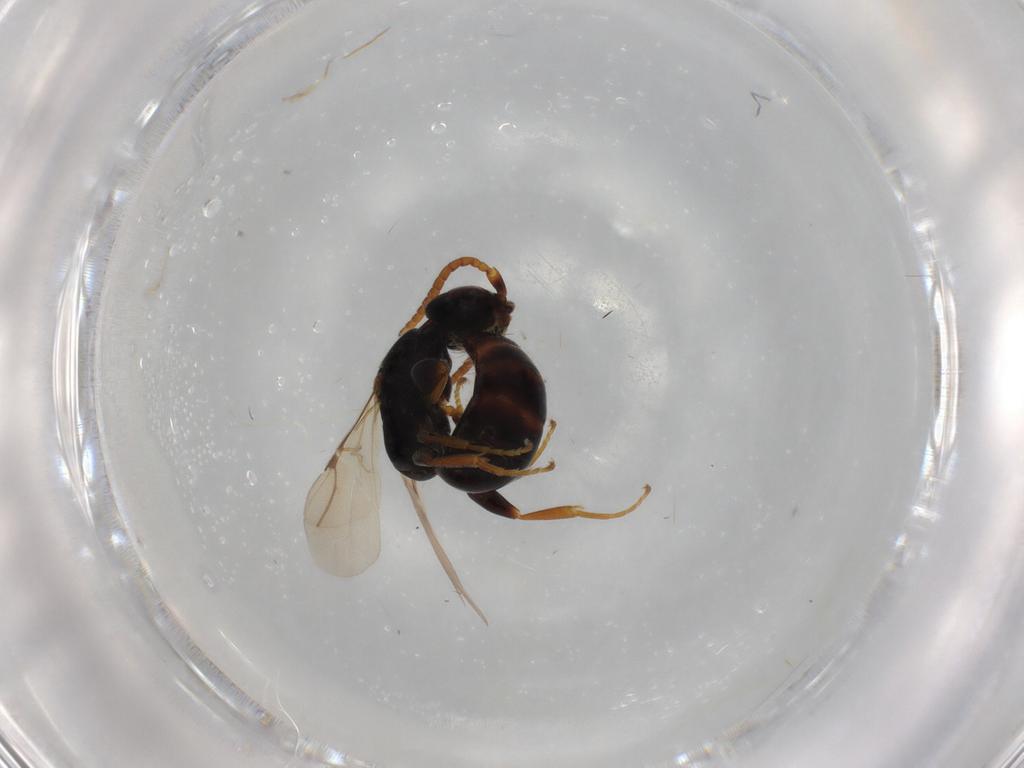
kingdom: Animalia
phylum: Arthropoda
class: Insecta
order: Hymenoptera
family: Bethylidae
